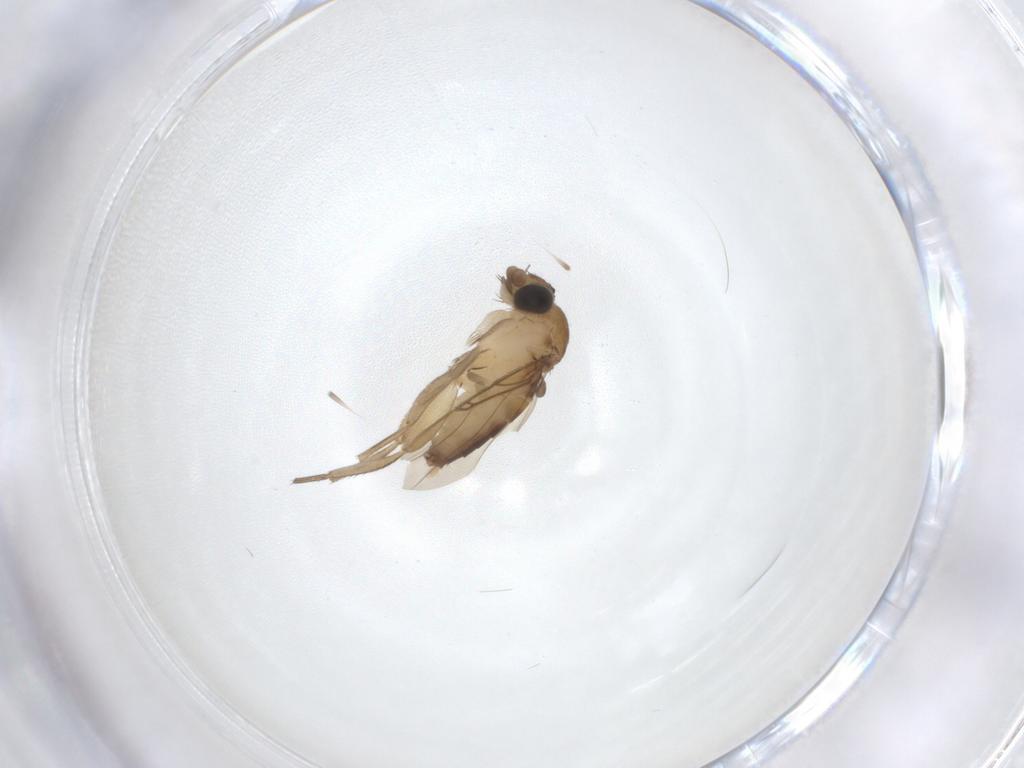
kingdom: Animalia
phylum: Arthropoda
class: Insecta
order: Diptera
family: Phoridae
